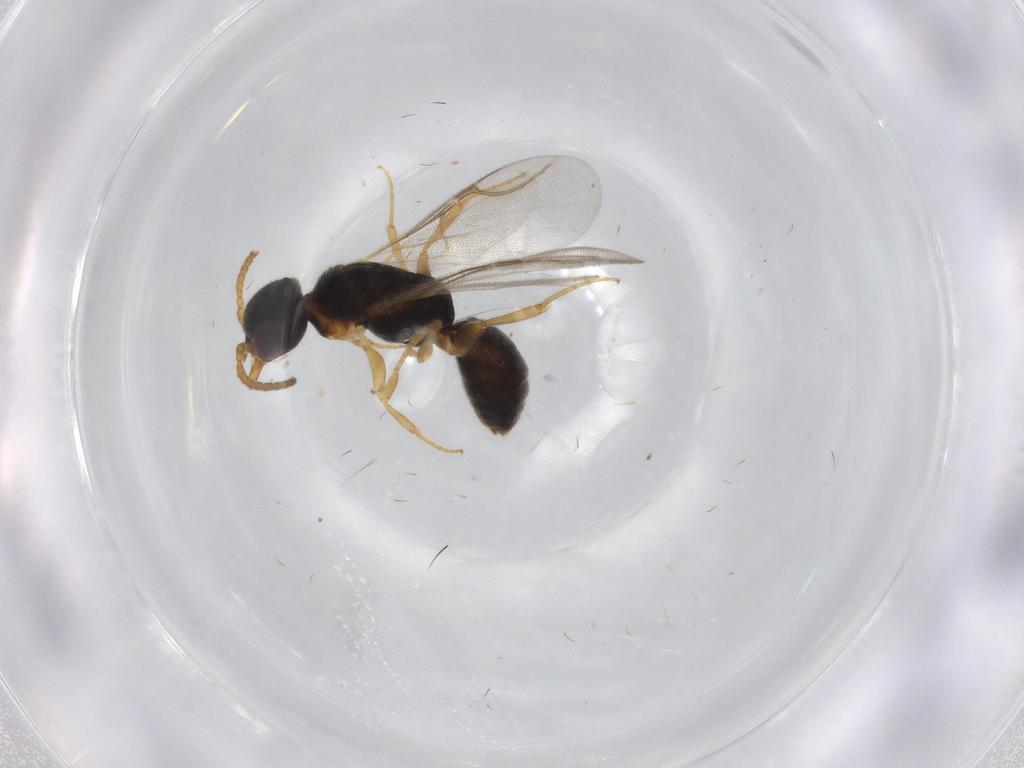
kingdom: Animalia
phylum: Arthropoda
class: Insecta
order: Hymenoptera
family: Bethylidae
